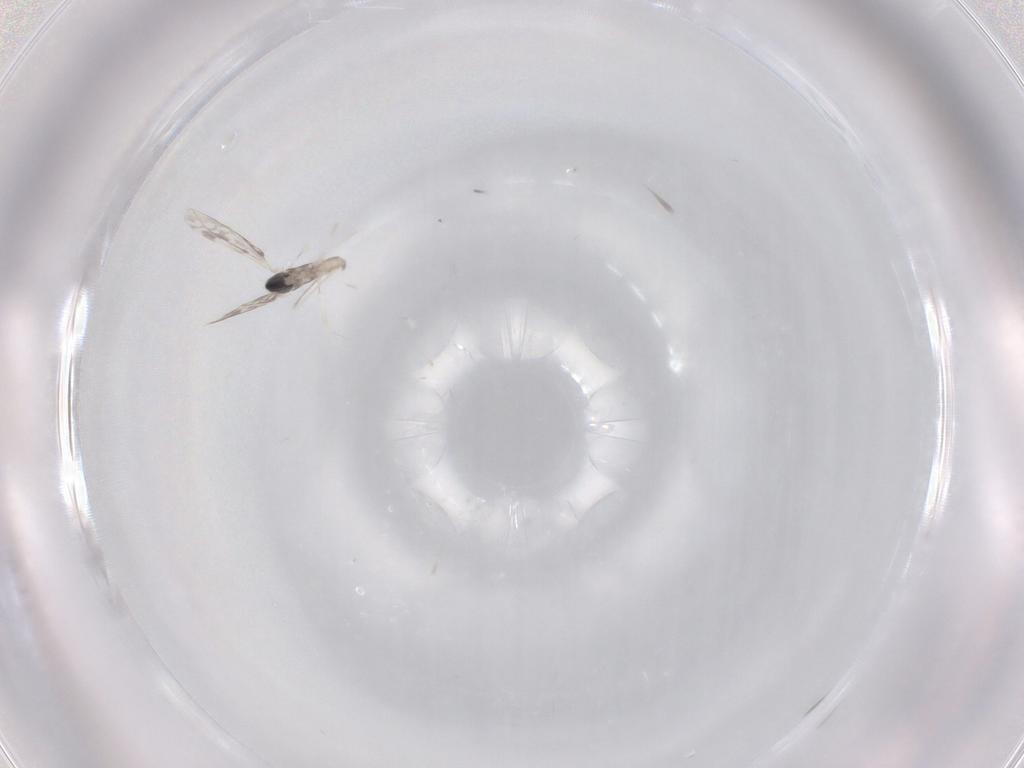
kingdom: Animalia
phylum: Arthropoda
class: Insecta
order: Diptera
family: Cecidomyiidae
